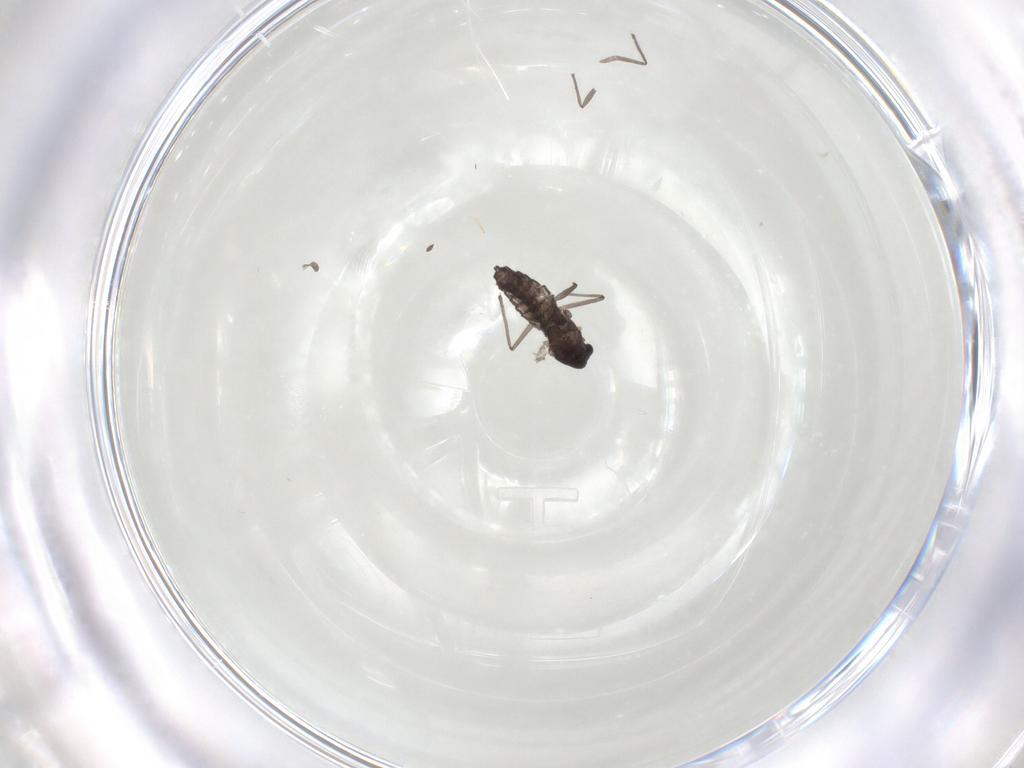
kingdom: Animalia
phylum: Arthropoda
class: Insecta
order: Diptera
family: Chironomidae
